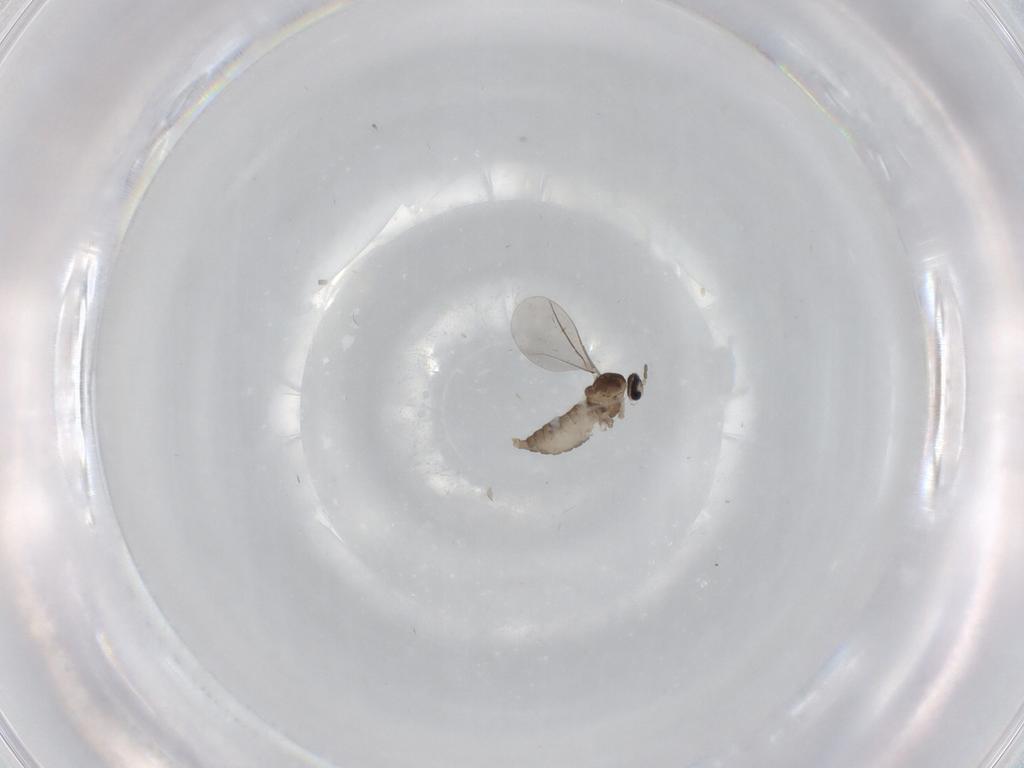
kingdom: Animalia
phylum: Arthropoda
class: Insecta
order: Diptera
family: Cecidomyiidae
